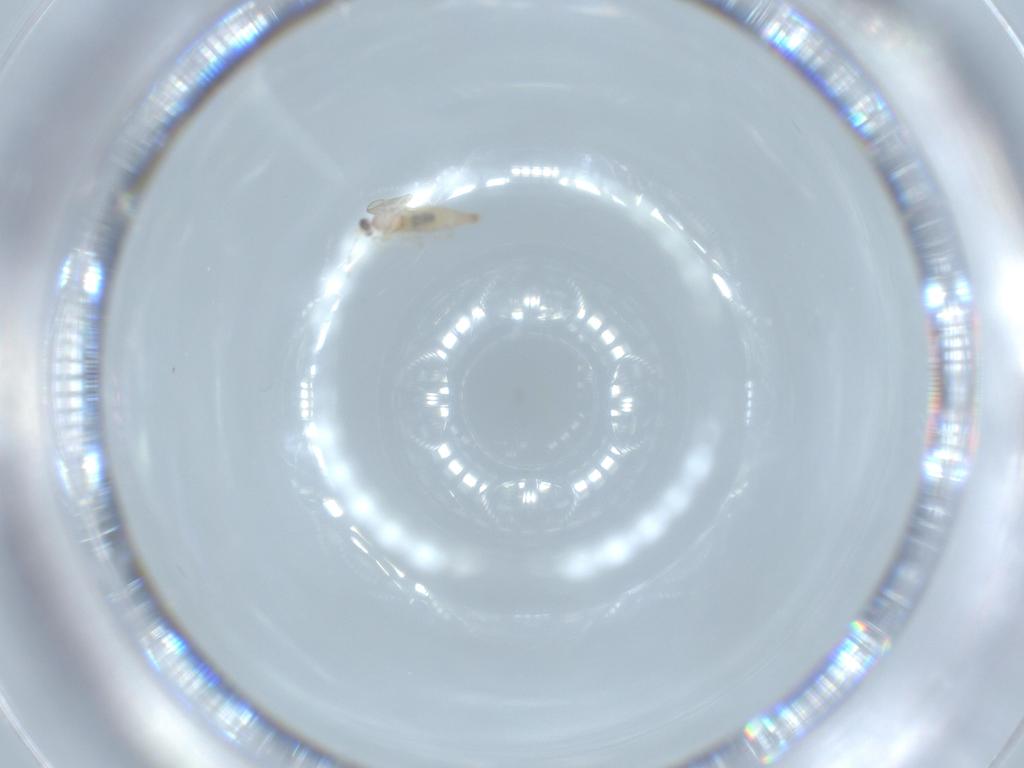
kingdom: Animalia
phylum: Arthropoda
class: Insecta
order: Diptera
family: Cecidomyiidae
